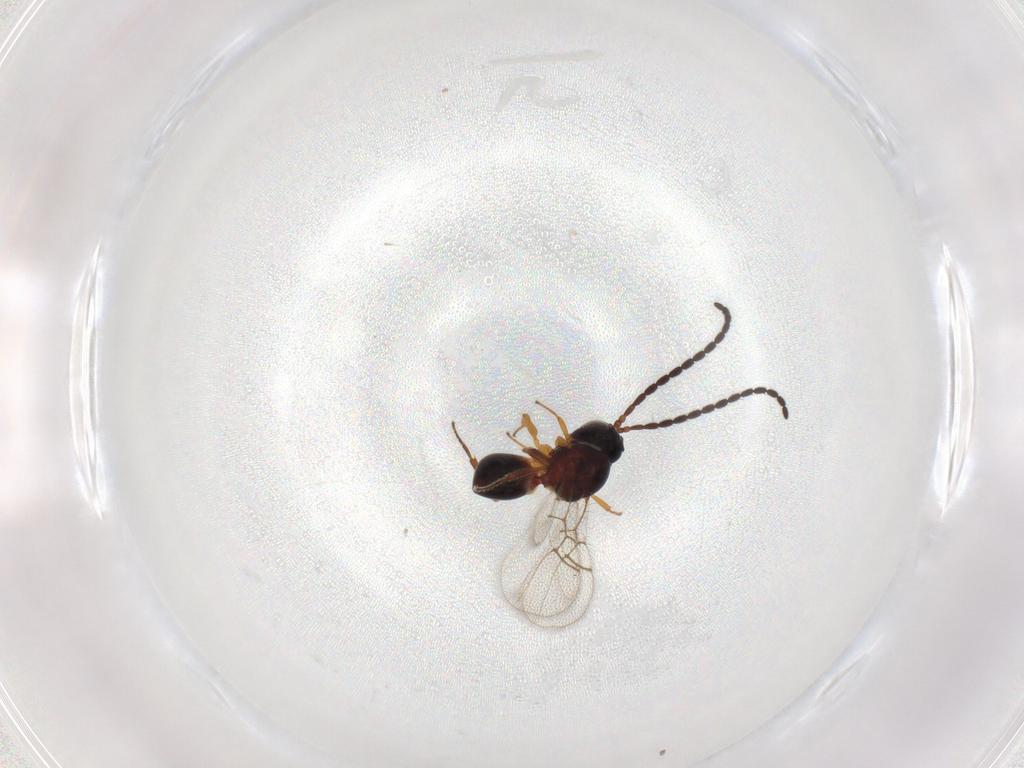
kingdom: Animalia
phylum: Arthropoda
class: Insecta
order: Hymenoptera
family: Figitidae
